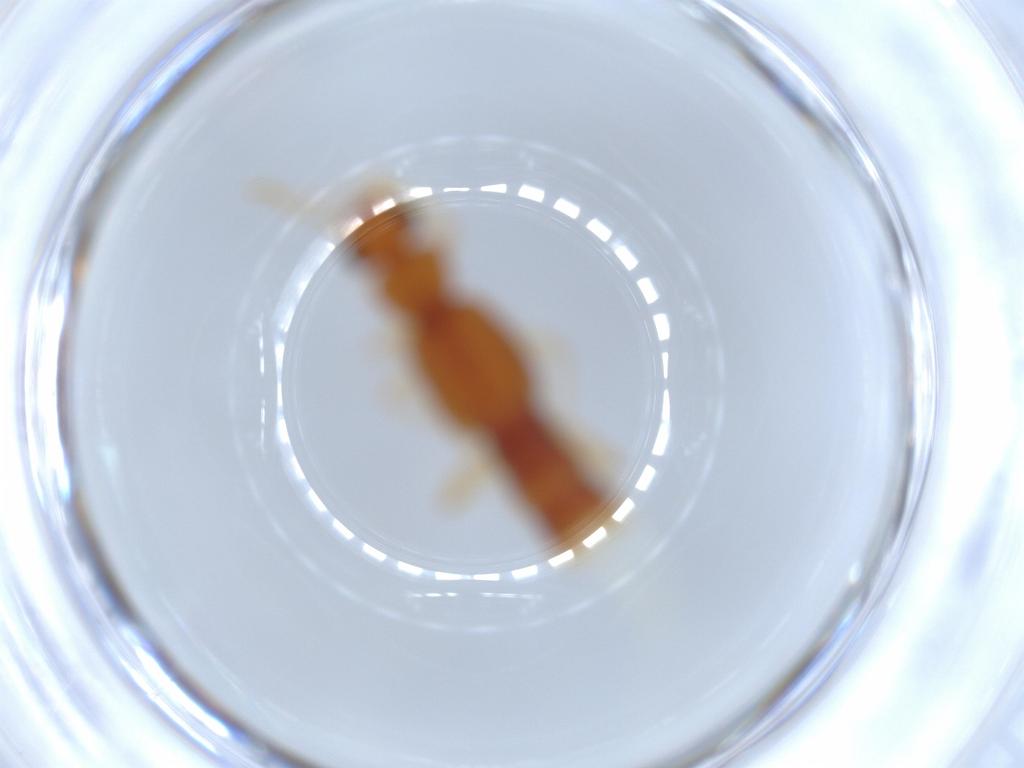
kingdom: Animalia
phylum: Arthropoda
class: Insecta
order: Coleoptera
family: Staphylinidae
